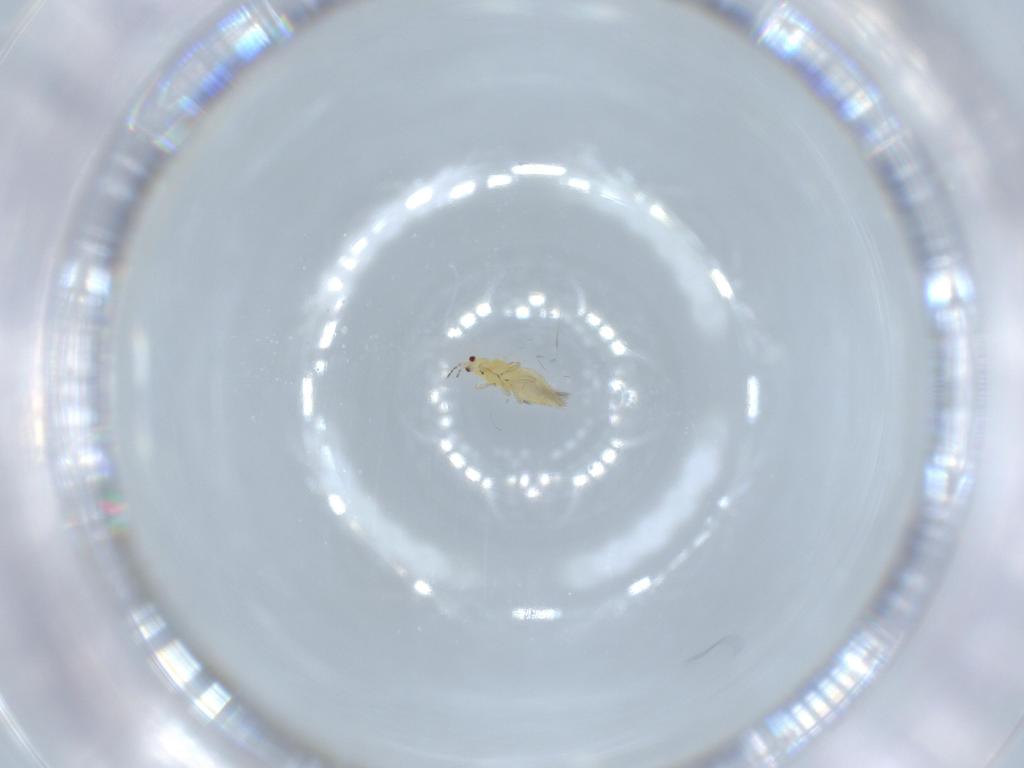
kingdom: Animalia
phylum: Arthropoda
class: Insecta
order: Thysanoptera
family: Thripidae
